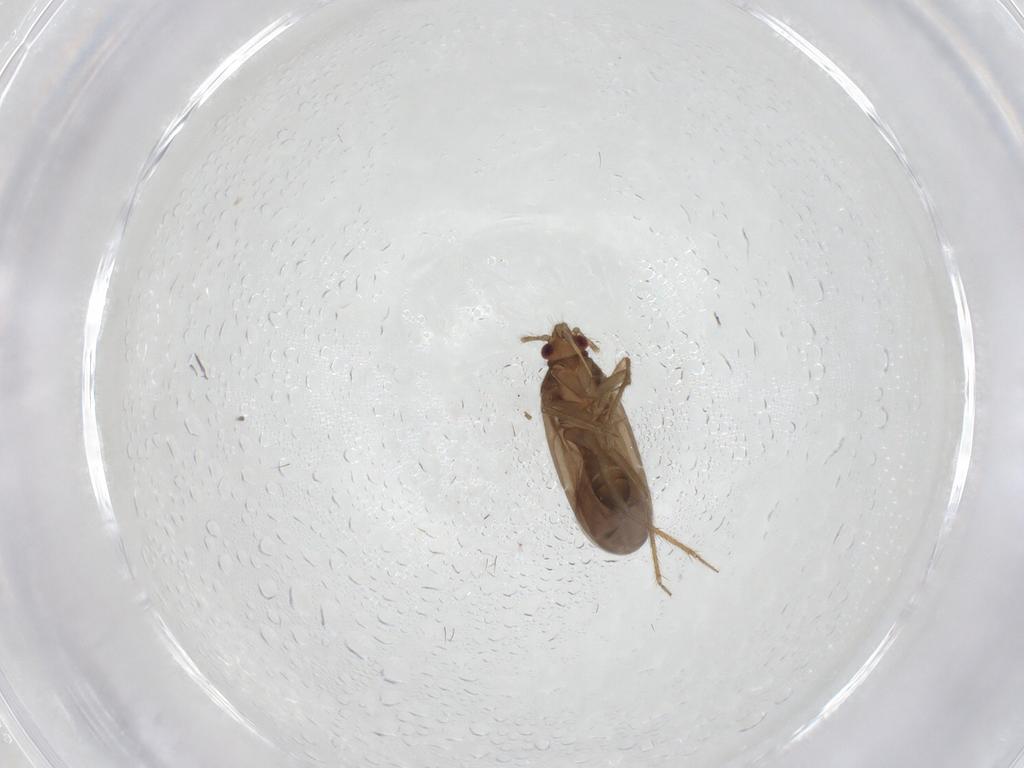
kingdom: Animalia
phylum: Arthropoda
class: Insecta
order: Hemiptera
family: Ceratocombidae
